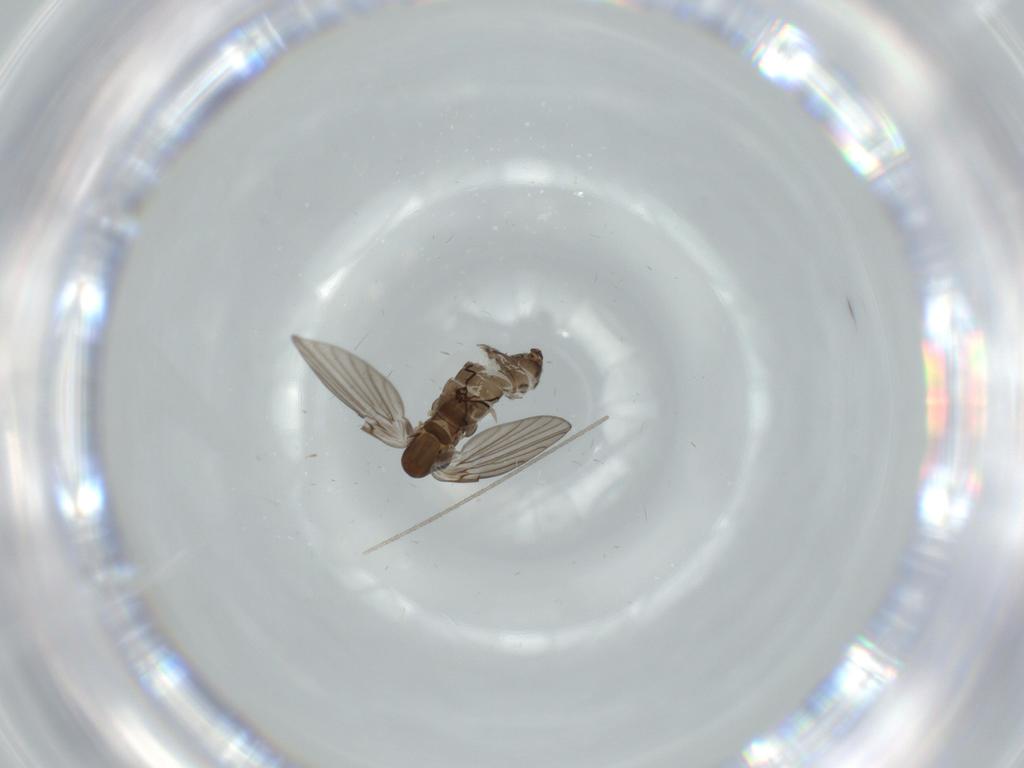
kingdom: Animalia
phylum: Arthropoda
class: Insecta
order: Diptera
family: Psychodidae
